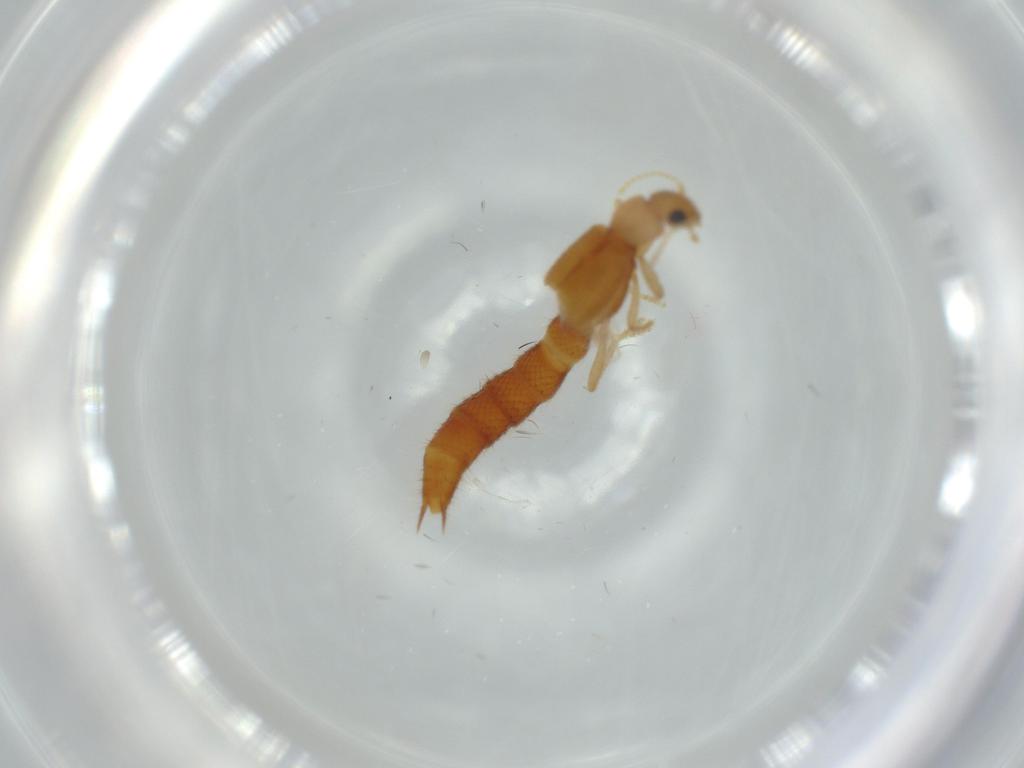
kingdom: Animalia
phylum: Arthropoda
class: Insecta
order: Coleoptera
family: Staphylinidae
